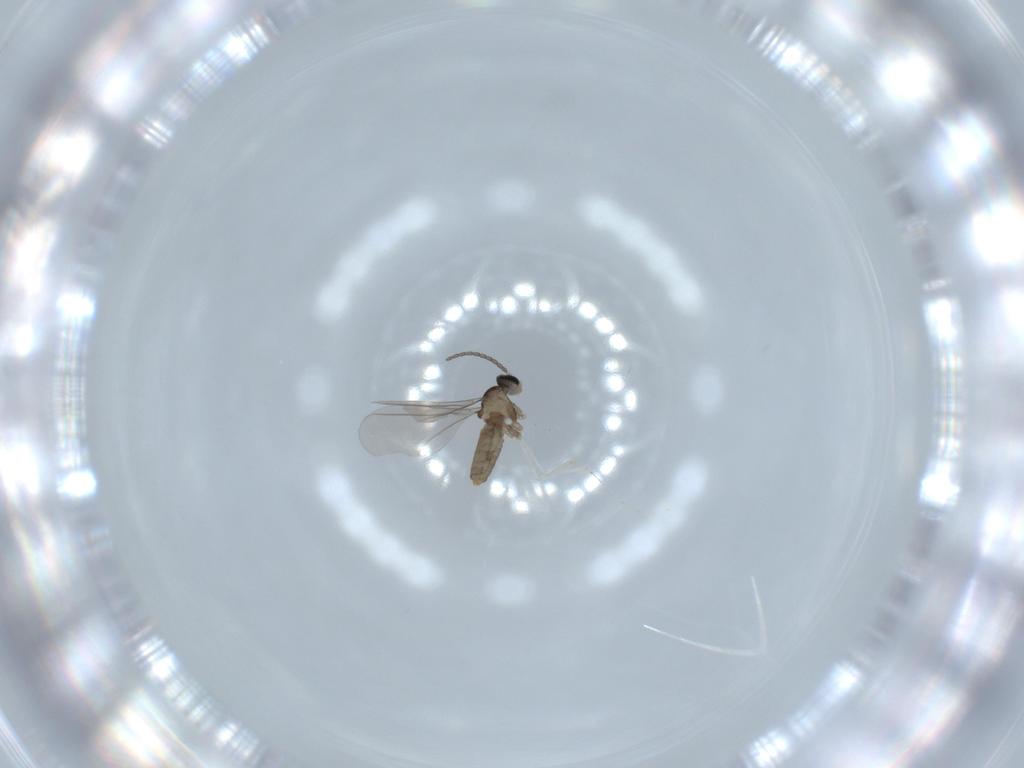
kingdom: Animalia
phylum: Arthropoda
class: Insecta
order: Diptera
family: Cecidomyiidae
